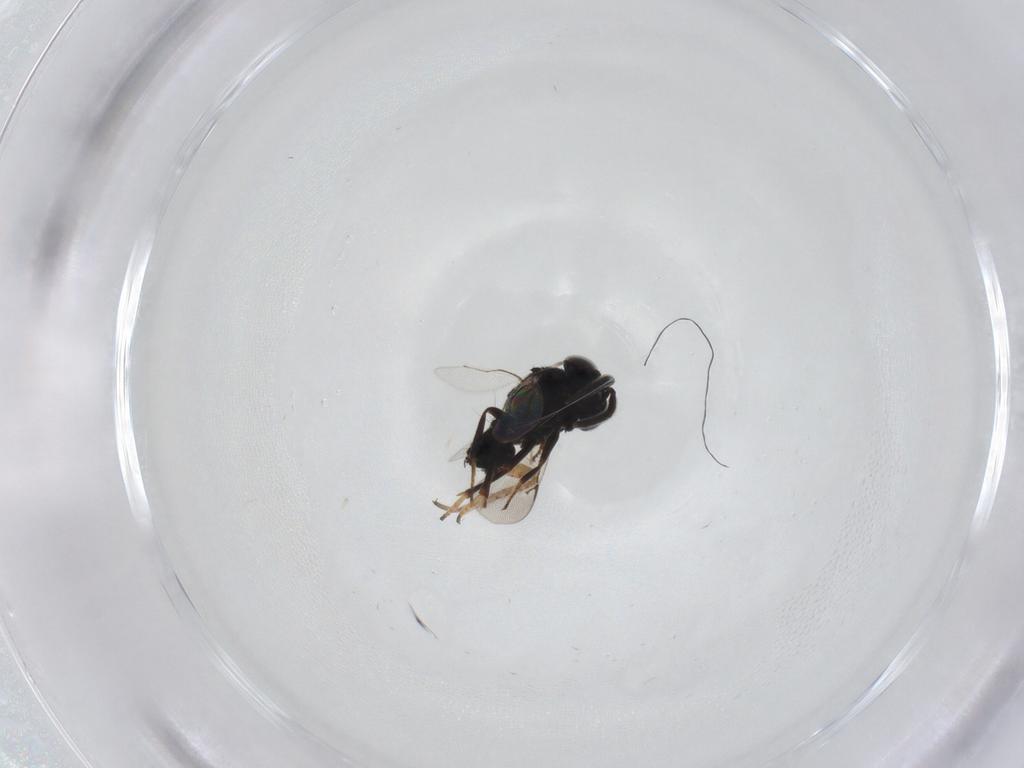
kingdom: Animalia
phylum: Arthropoda
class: Insecta
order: Hymenoptera
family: Encyrtidae
